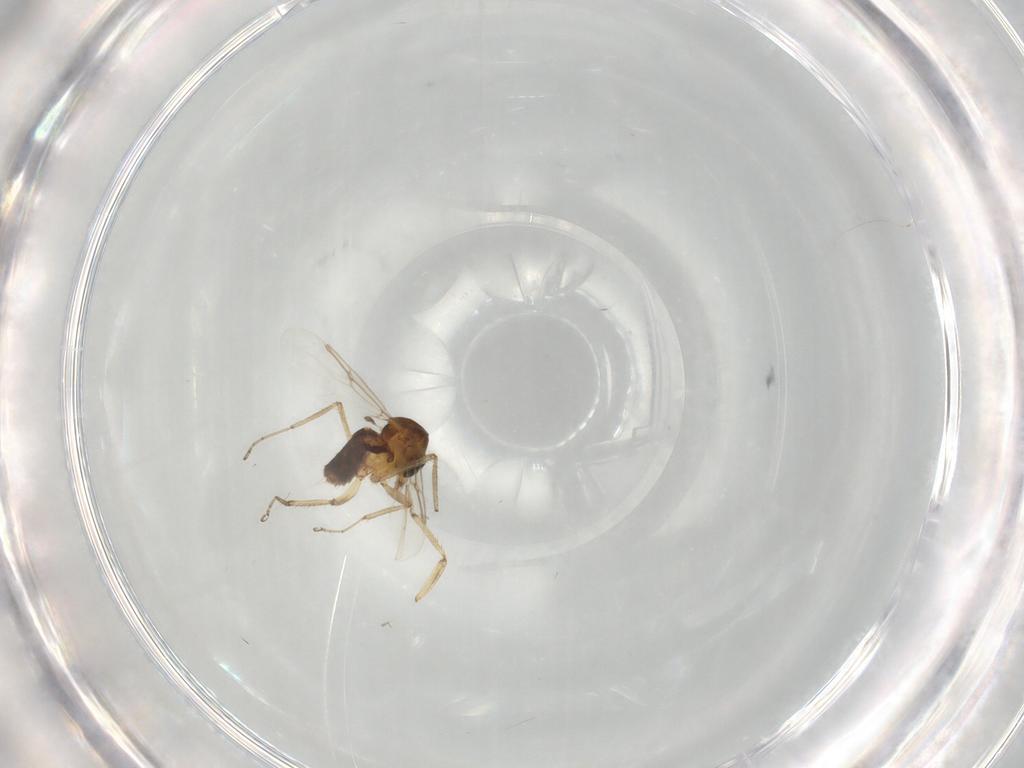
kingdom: Animalia
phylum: Arthropoda
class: Insecta
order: Diptera
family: Ceratopogonidae
